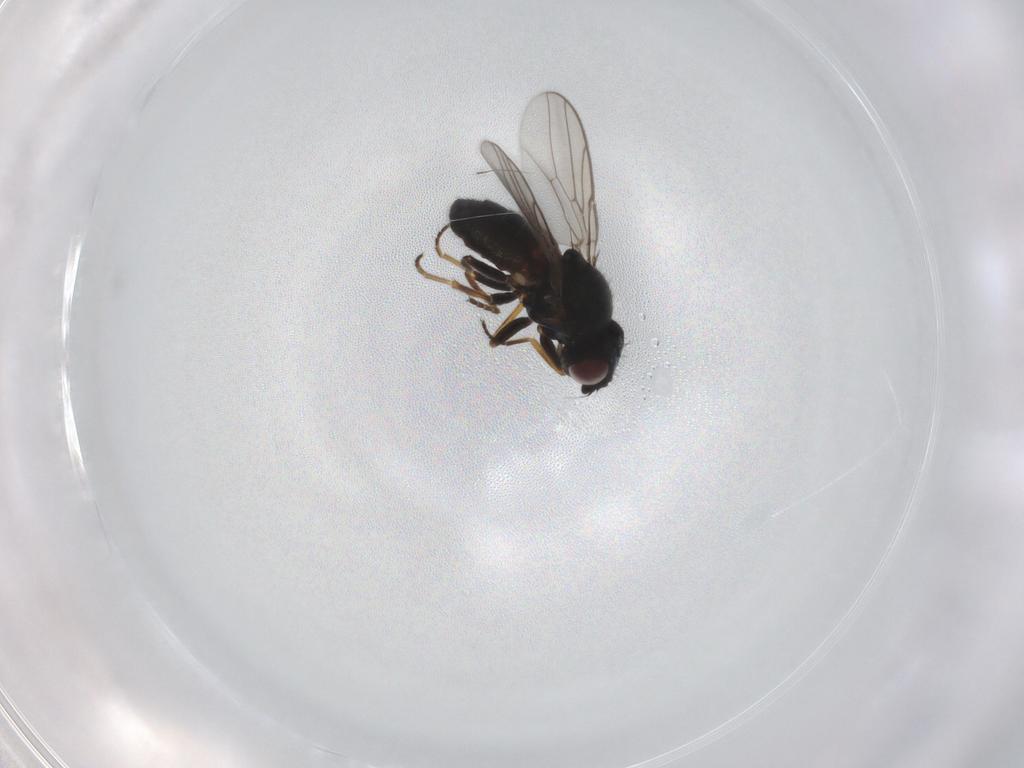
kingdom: Animalia
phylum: Arthropoda
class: Insecta
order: Diptera
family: Chloropidae
